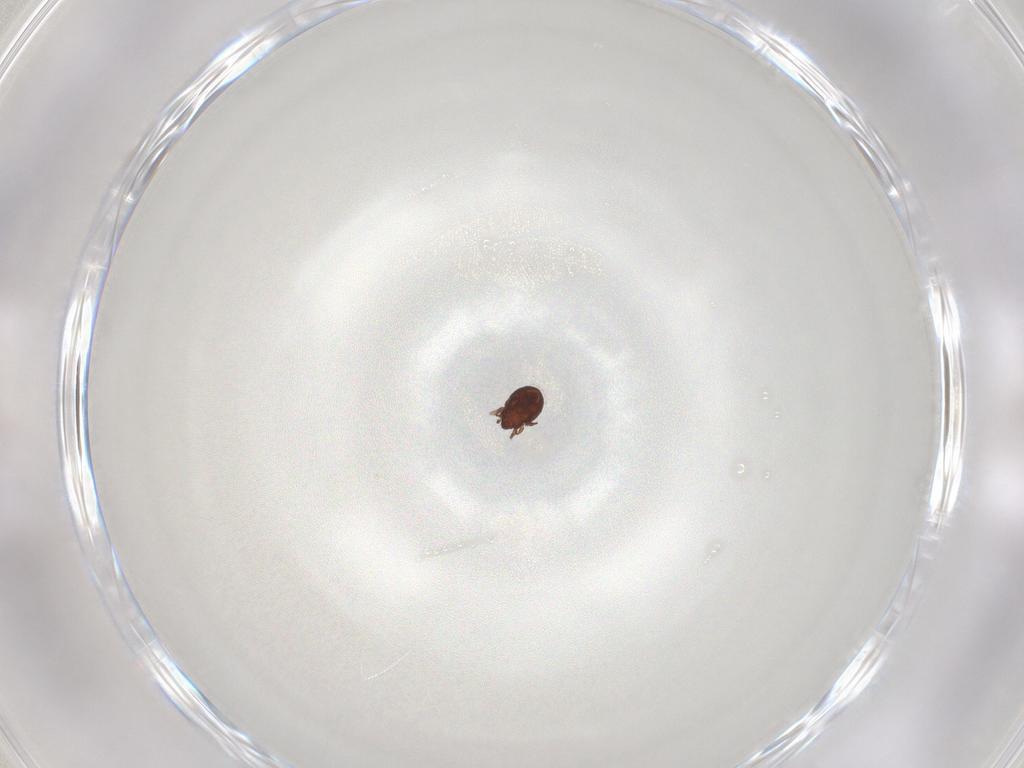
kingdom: Animalia
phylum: Arthropoda
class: Arachnida
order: Sarcoptiformes
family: Scheloribatidae
